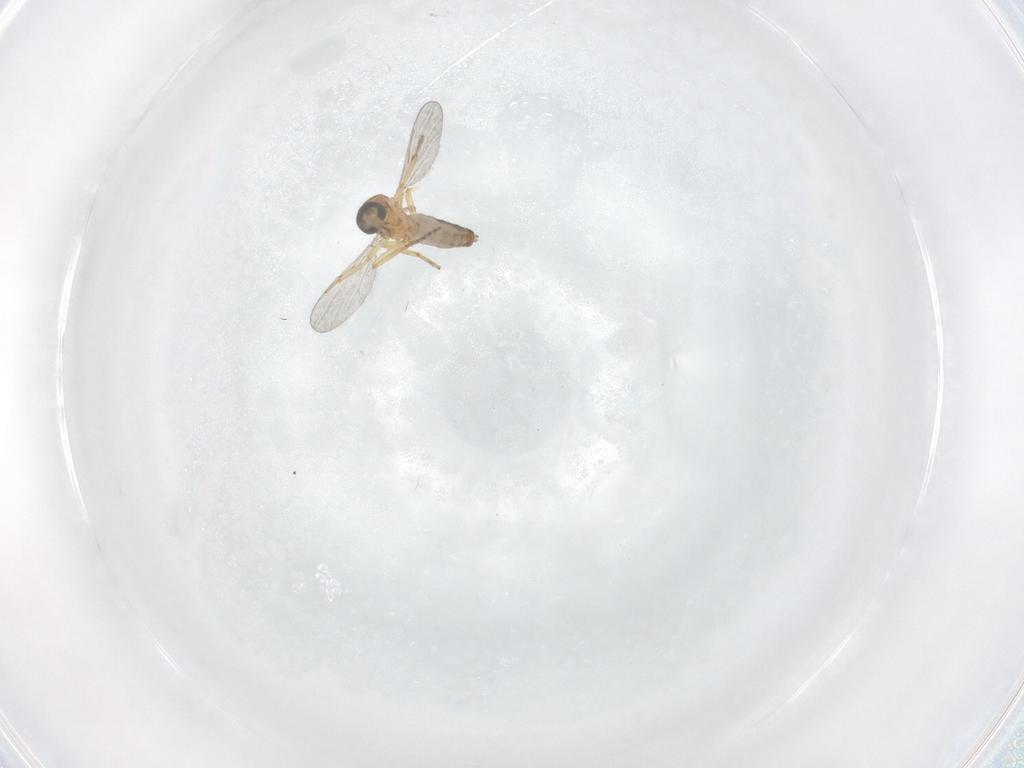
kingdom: Animalia
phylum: Arthropoda
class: Insecta
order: Diptera
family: Cecidomyiidae
